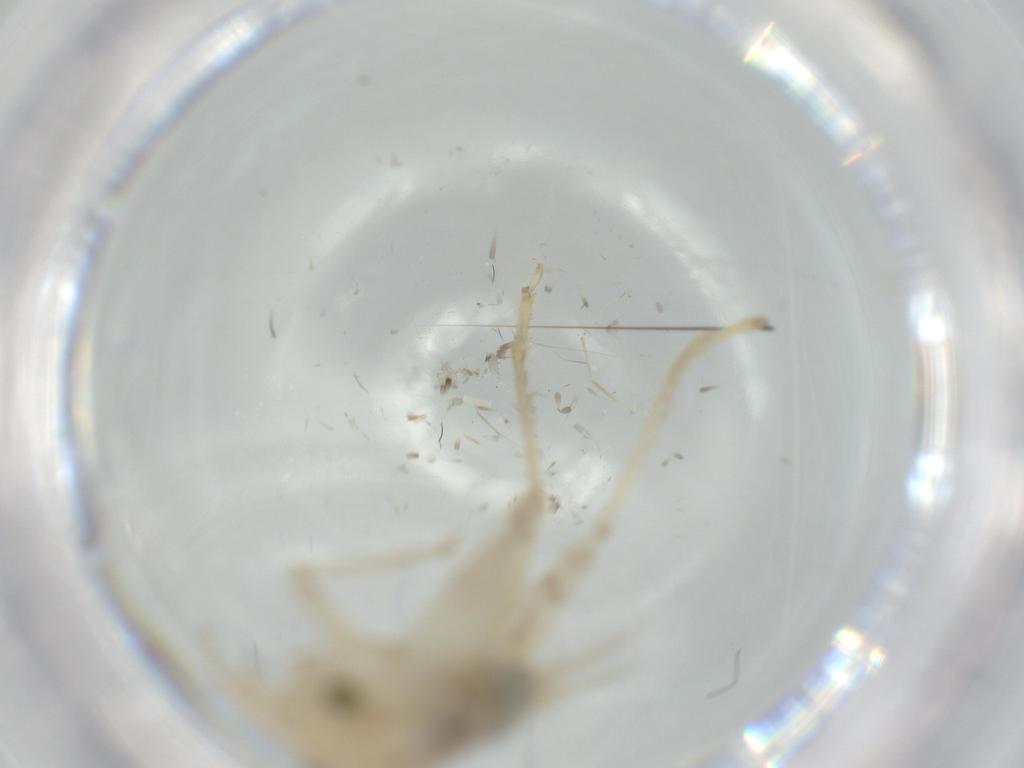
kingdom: Animalia
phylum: Arthropoda
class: Insecta
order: Orthoptera
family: Trigonidiidae
